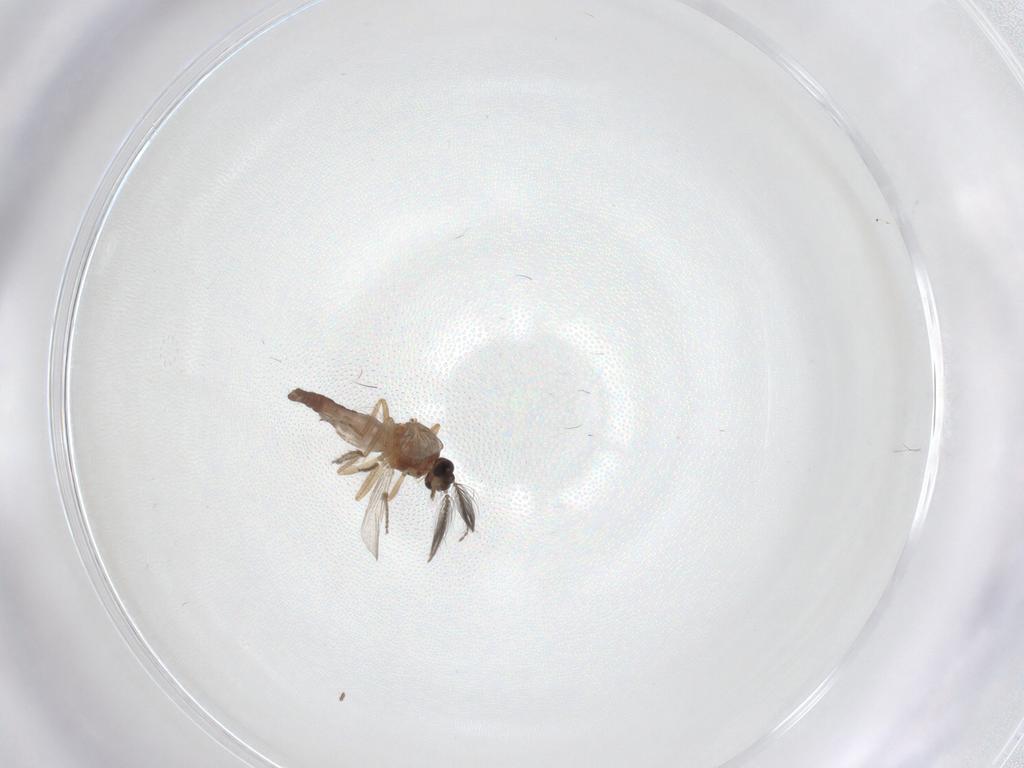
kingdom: Animalia
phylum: Arthropoda
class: Insecta
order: Diptera
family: Ceratopogonidae
